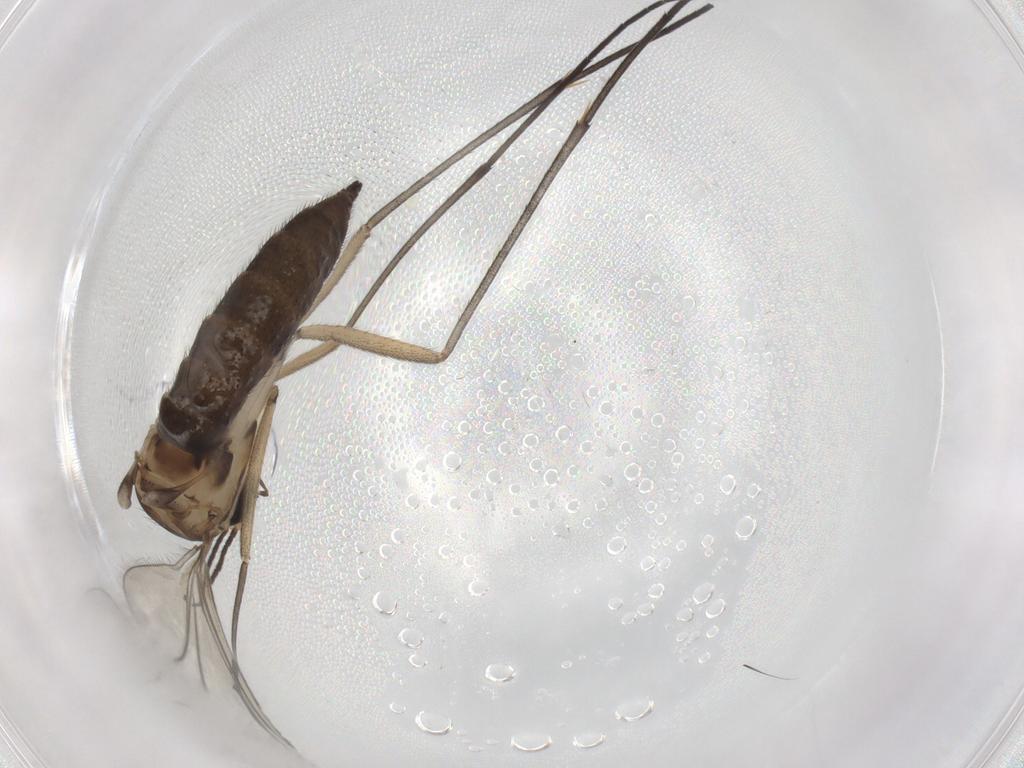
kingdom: Animalia
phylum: Arthropoda
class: Insecta
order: Diptera
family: Sciaridae
